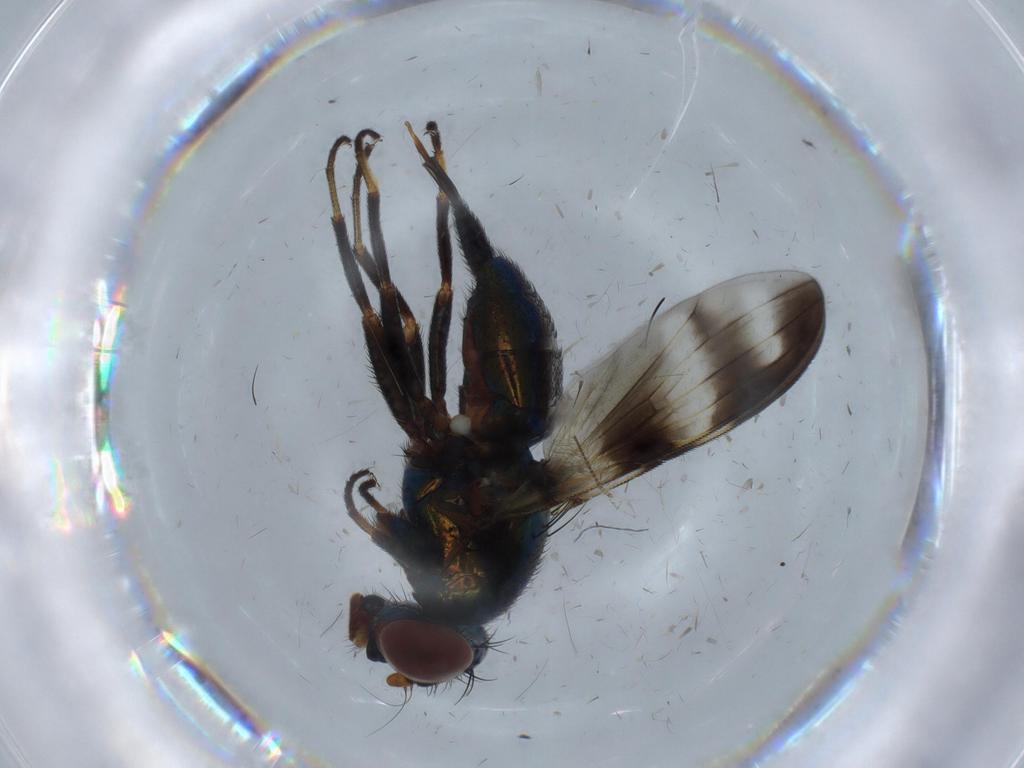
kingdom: Animalia
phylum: Arthropoda
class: Insecta
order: Diptera
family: Ulidiidae
